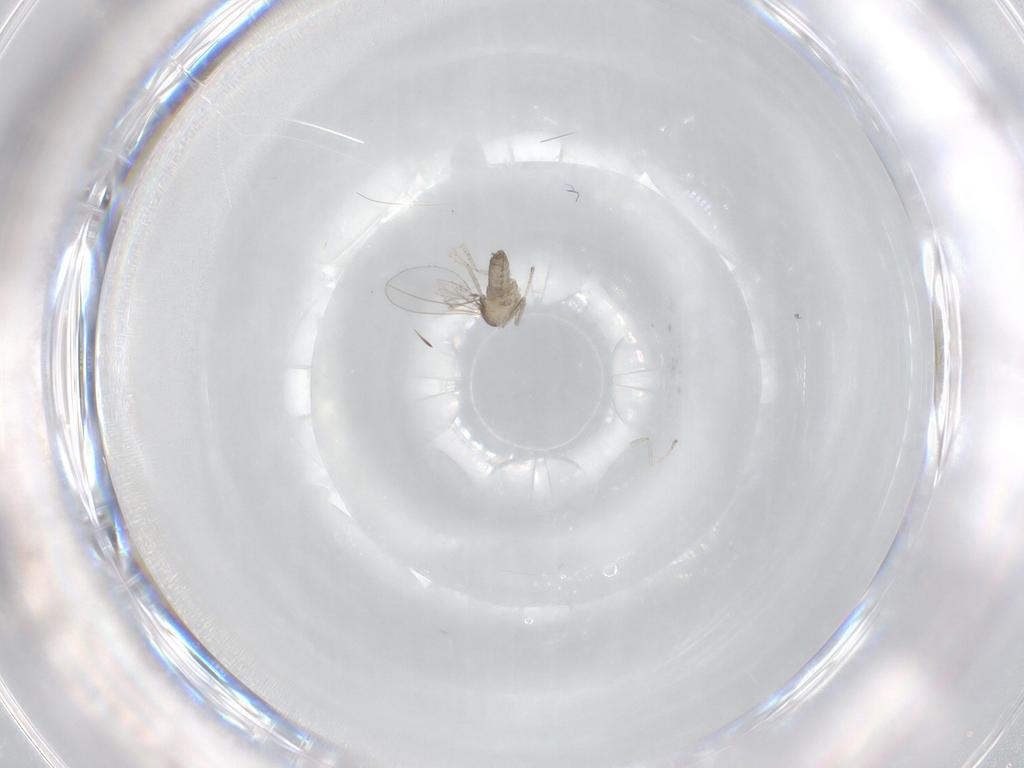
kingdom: Animalia
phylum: Arthropoda
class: Insecta
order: Diptera
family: Cecidomyiidae
